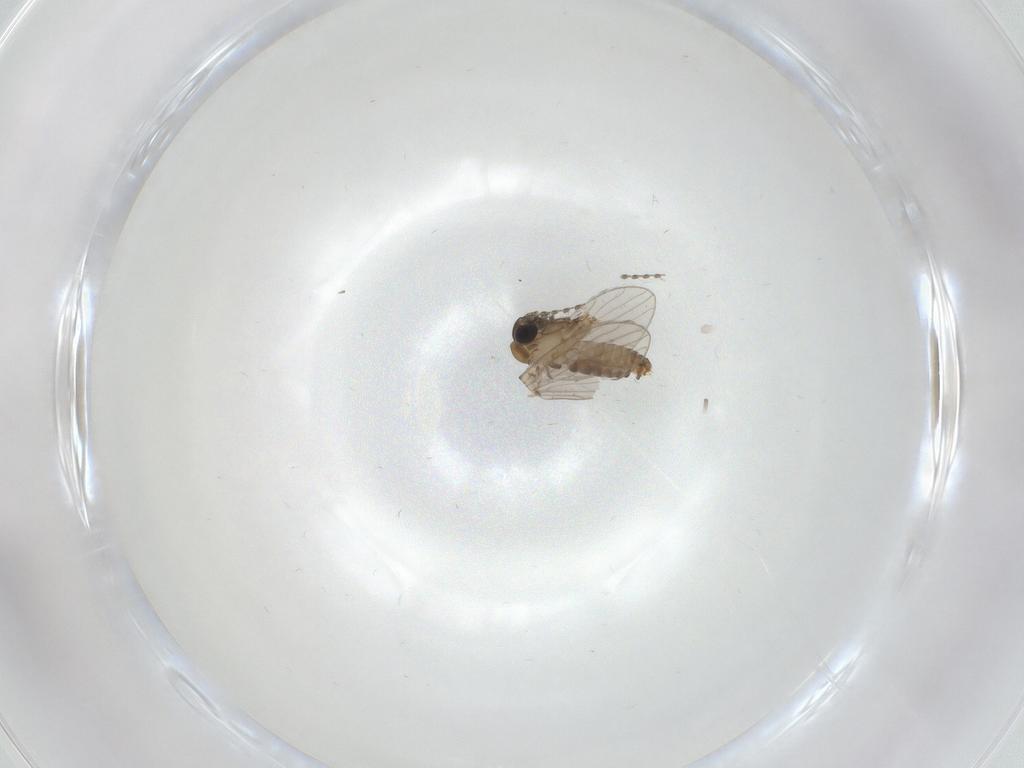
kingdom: Animalia
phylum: Arthropoda
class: Insecta
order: Diptera
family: Psychodidae
